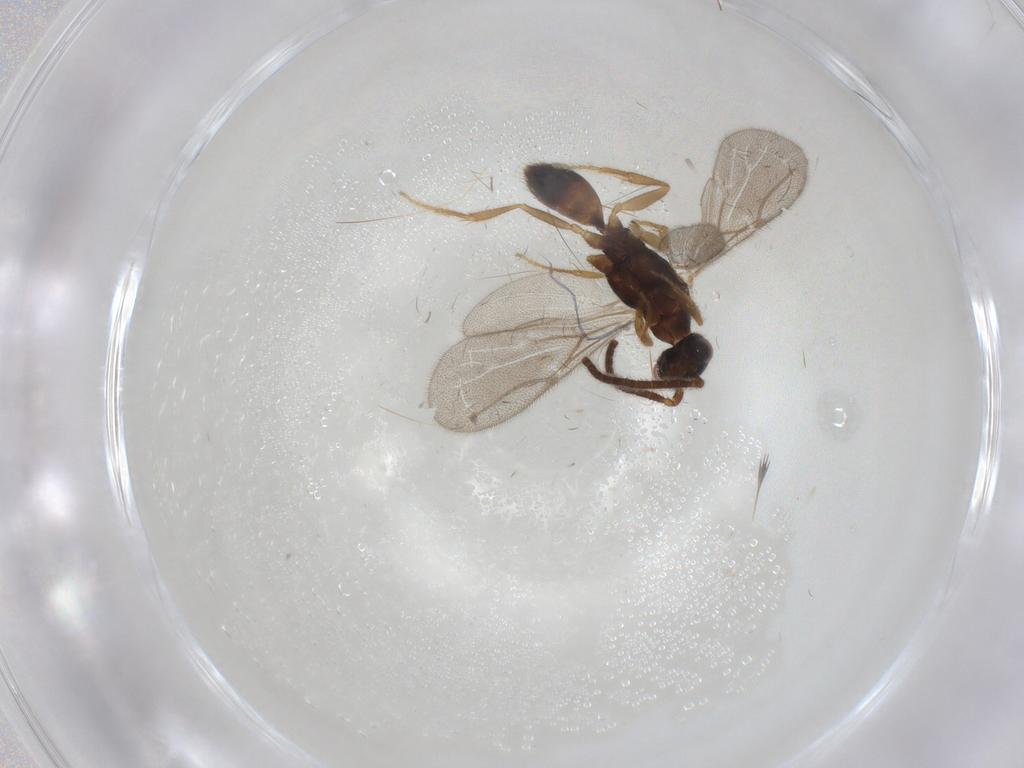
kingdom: Animalia
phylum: Arthropoda
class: Insecta
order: Hymenoptera
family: Bethylidae
